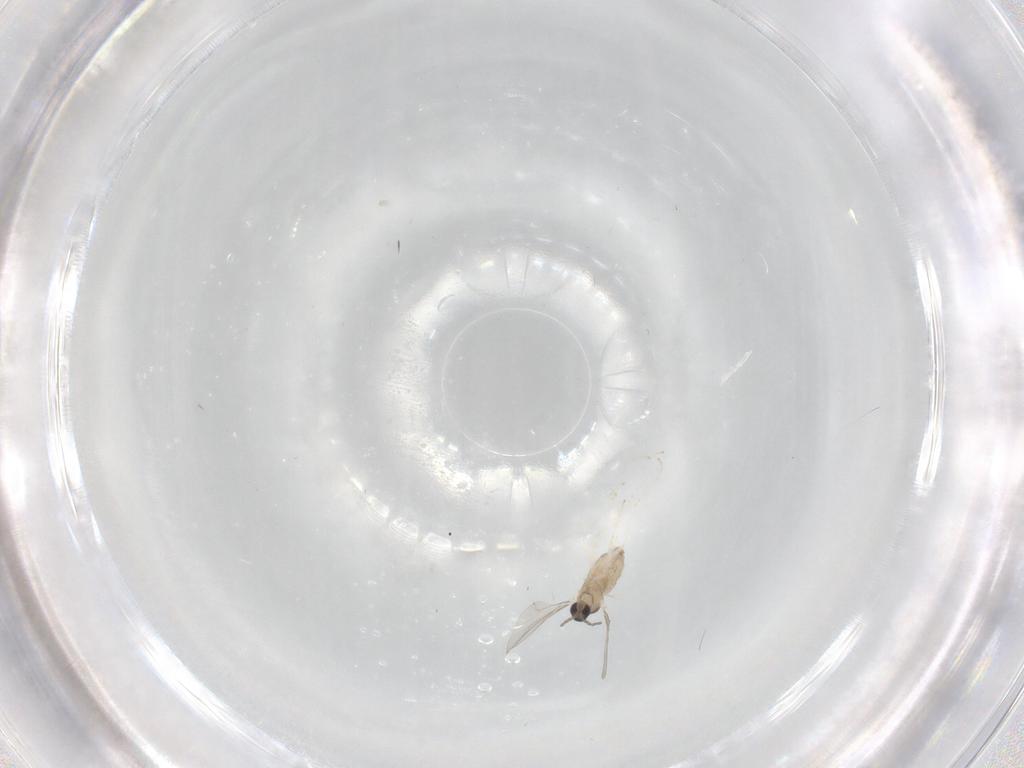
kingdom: Animalia
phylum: Arthropoda
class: Insecta
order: Diptera
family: Cecidomyiidae
